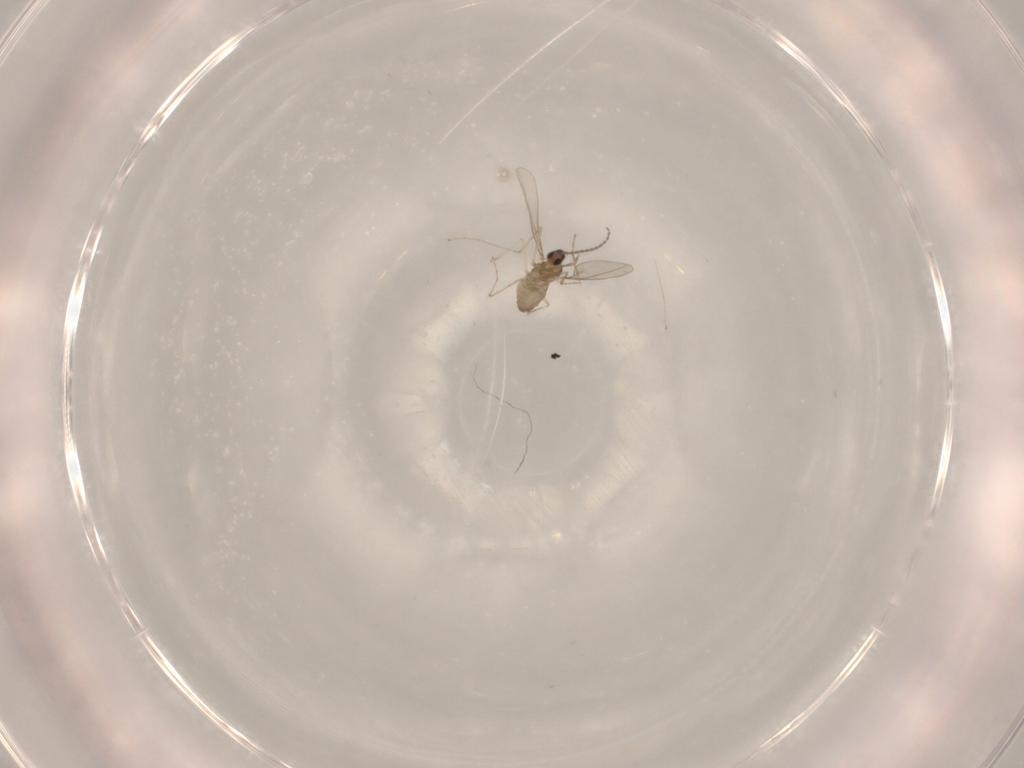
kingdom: Animalia
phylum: Arthropoda
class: Insecta
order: Diptera
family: Cecidomyiidae
